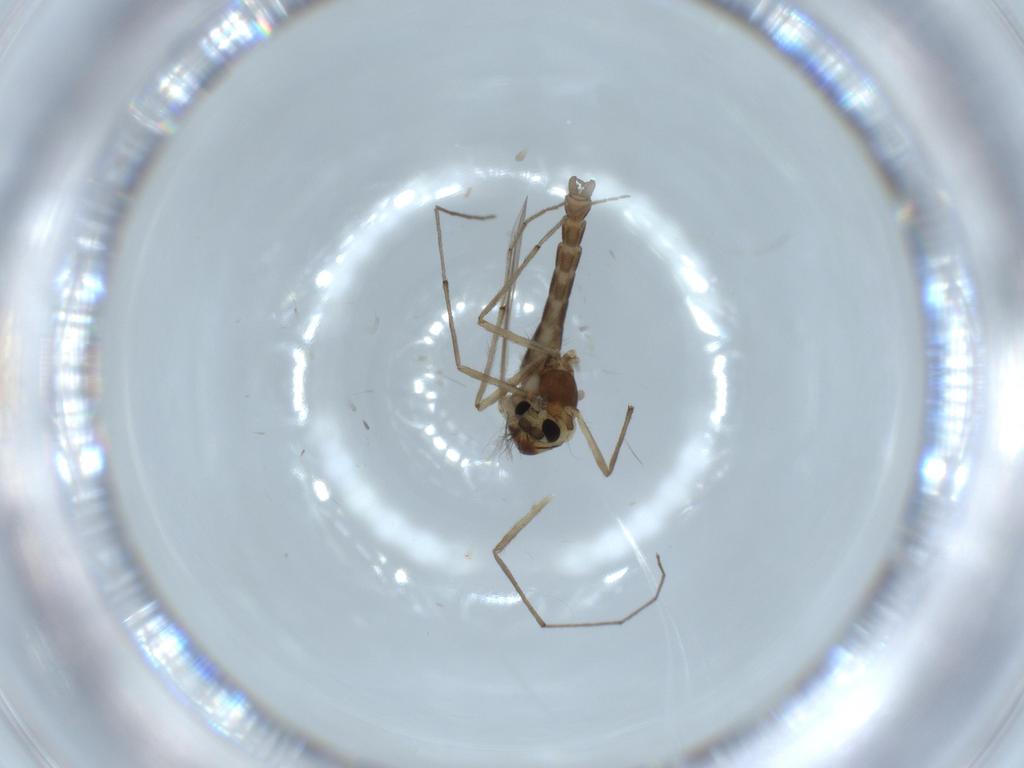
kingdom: Animalia
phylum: Arthropoda
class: Insecta
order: Diptera
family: Chironomidae
